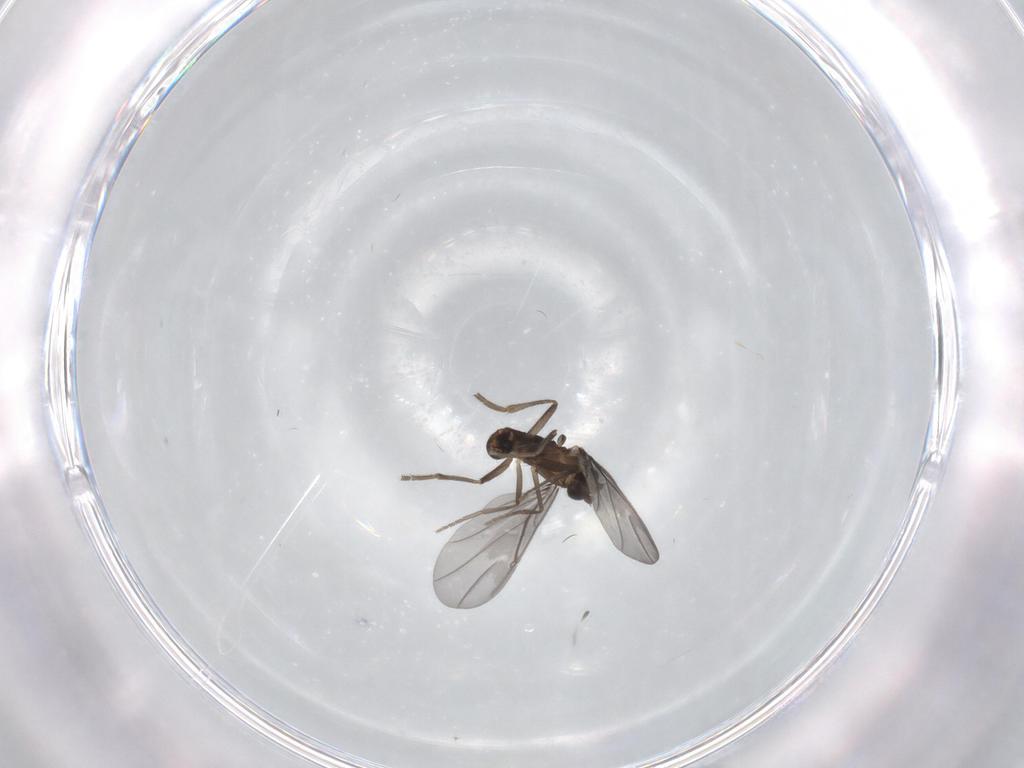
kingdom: Animalia
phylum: Arthropoda
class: Insecta
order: Diptera
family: Phoridae
